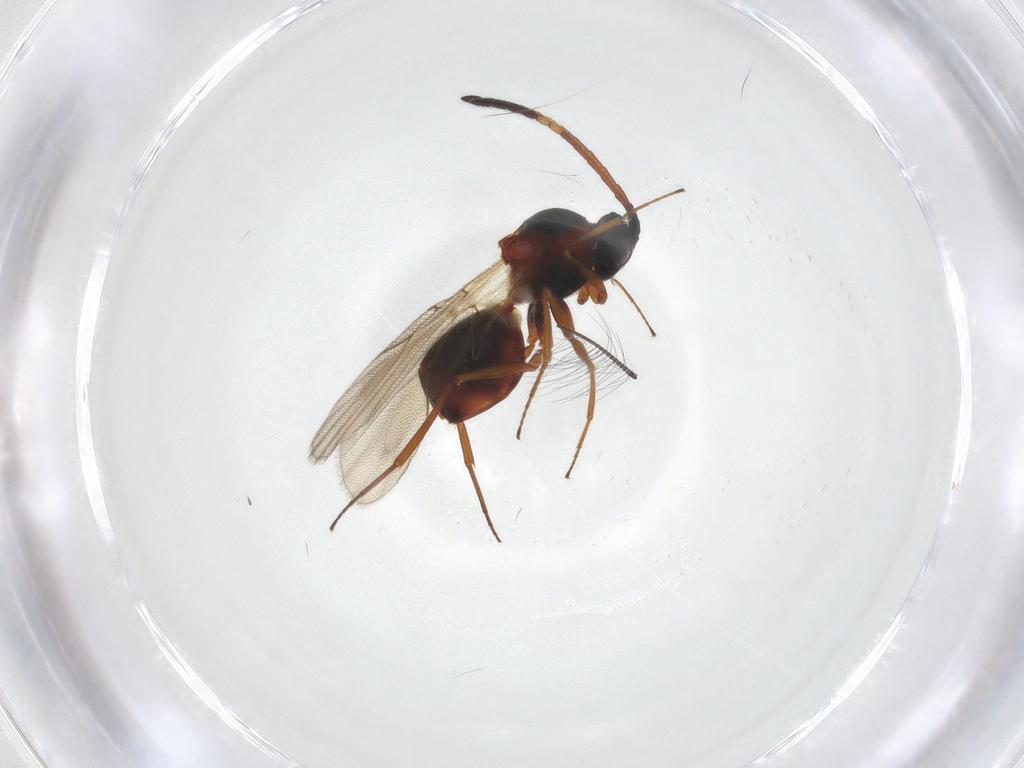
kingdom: Animalia
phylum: Arthropoda
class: Insecta
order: Hymenoptera
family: Figitidae
